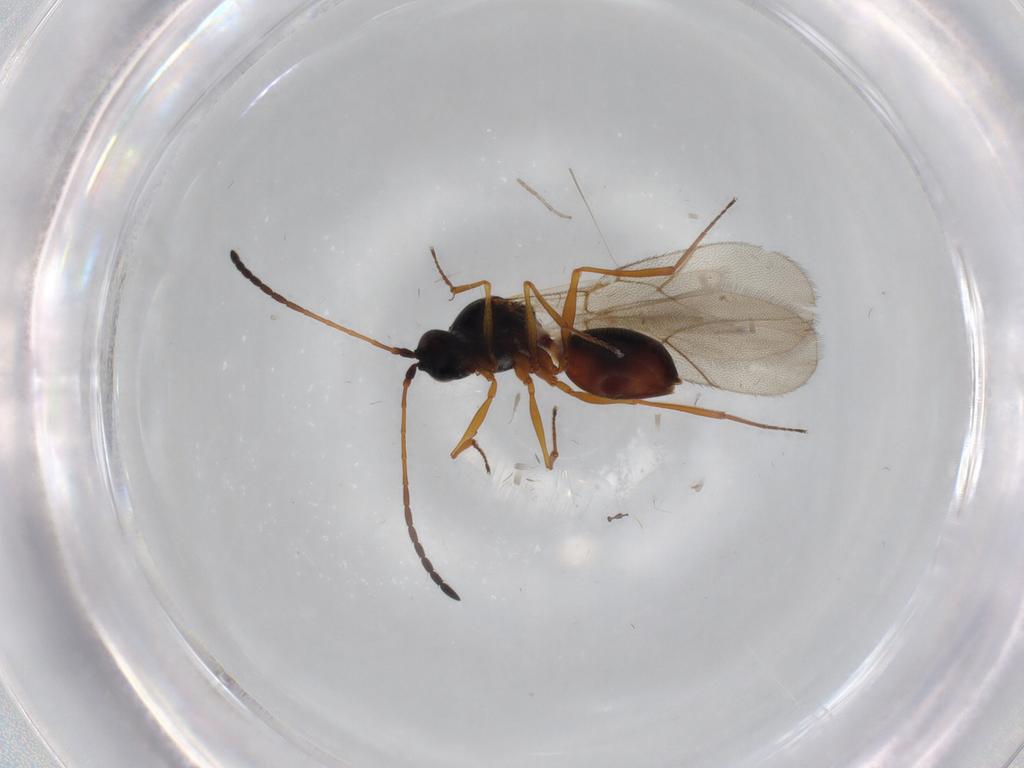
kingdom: Animalia
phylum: Arthropoda
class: Insecta
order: Hymenoptera
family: Figitidae
